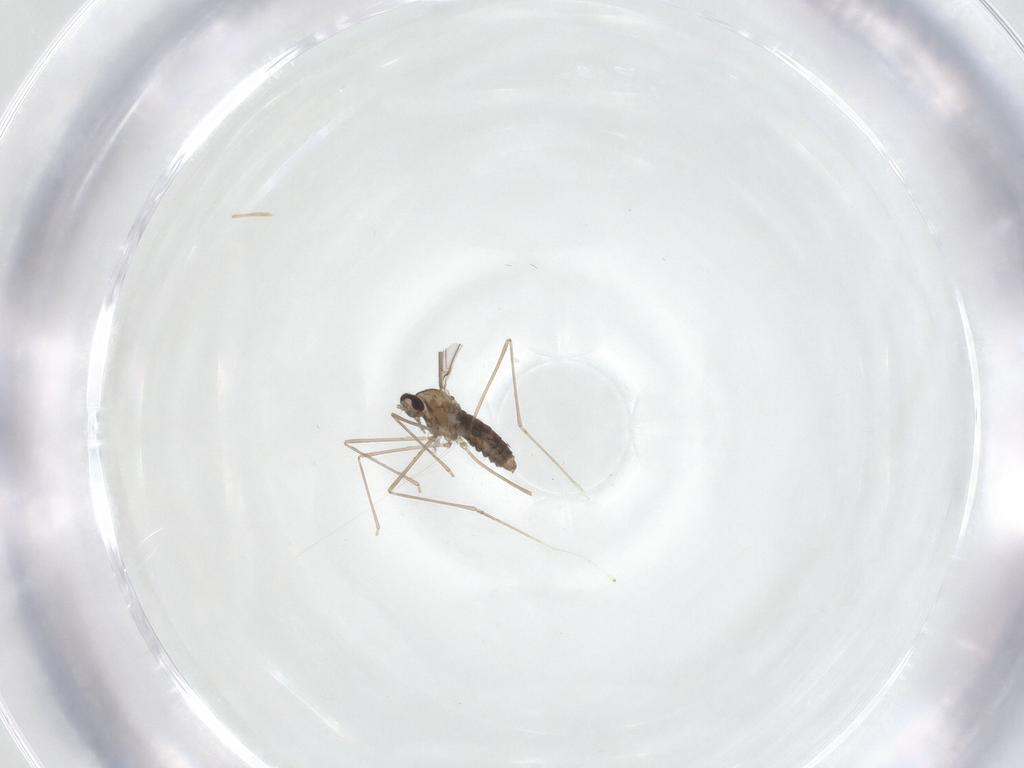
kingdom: Animalia
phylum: Arthropoda
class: Insecta
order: Diptera
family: Cecidomyiidae
